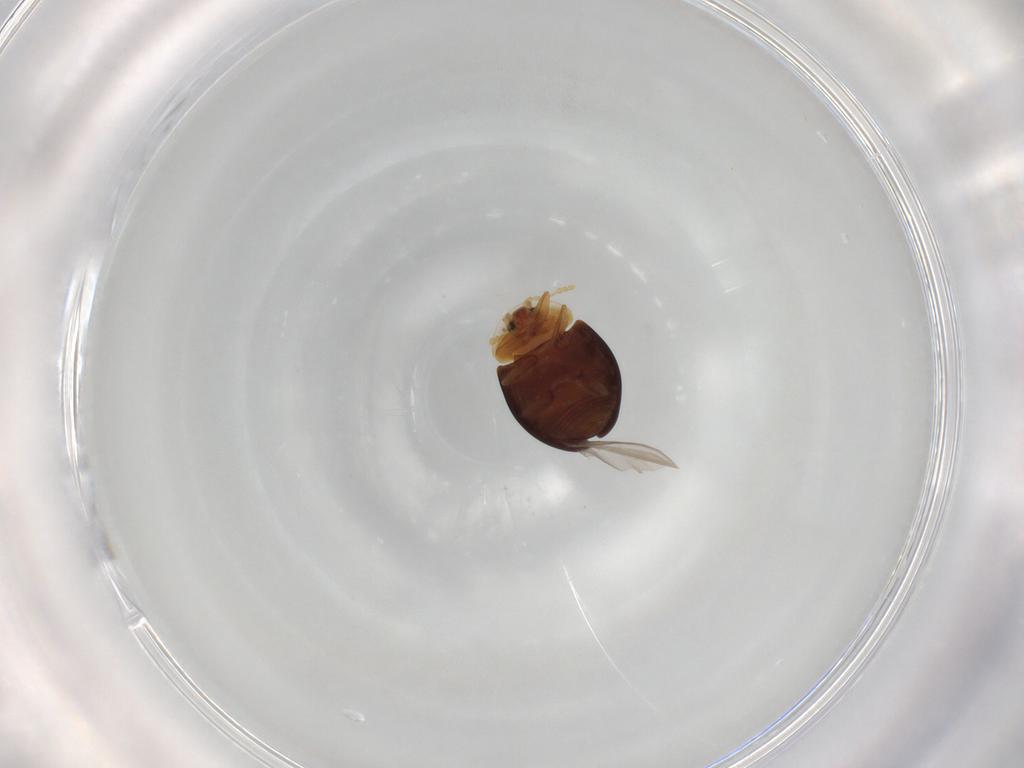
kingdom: Animalia
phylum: Arthropoda
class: Insecta
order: Coleoptera
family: Corylophidae
